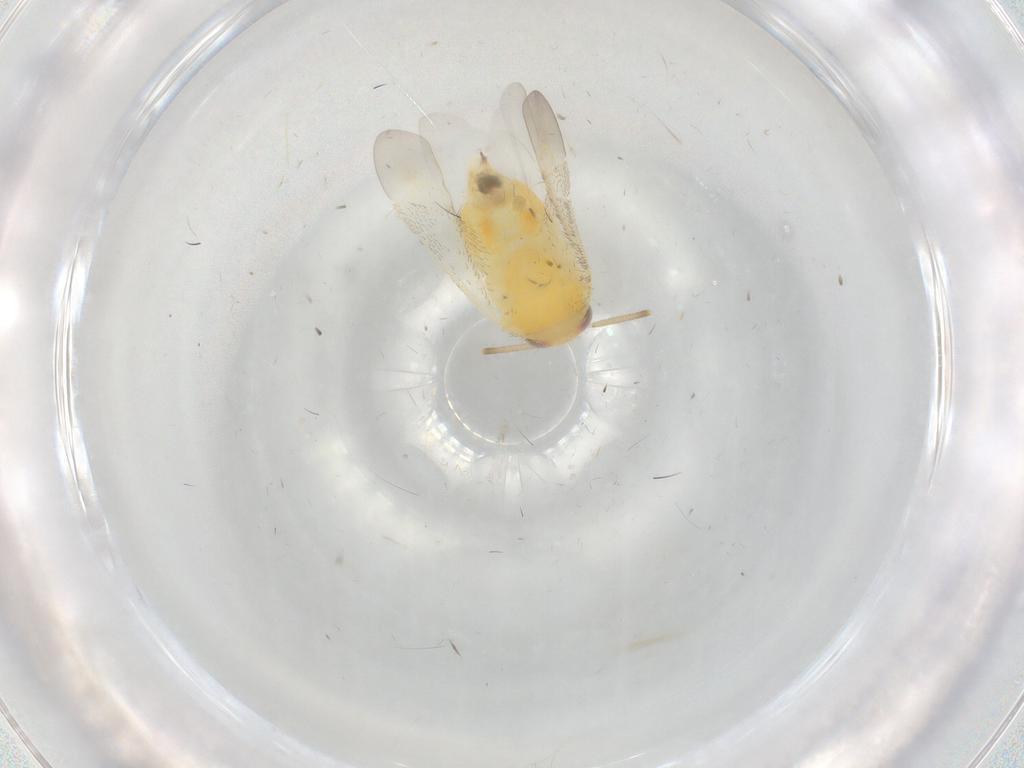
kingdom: Animalia
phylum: Arthropoda
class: Insecta
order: Hemiptera
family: Miridae
